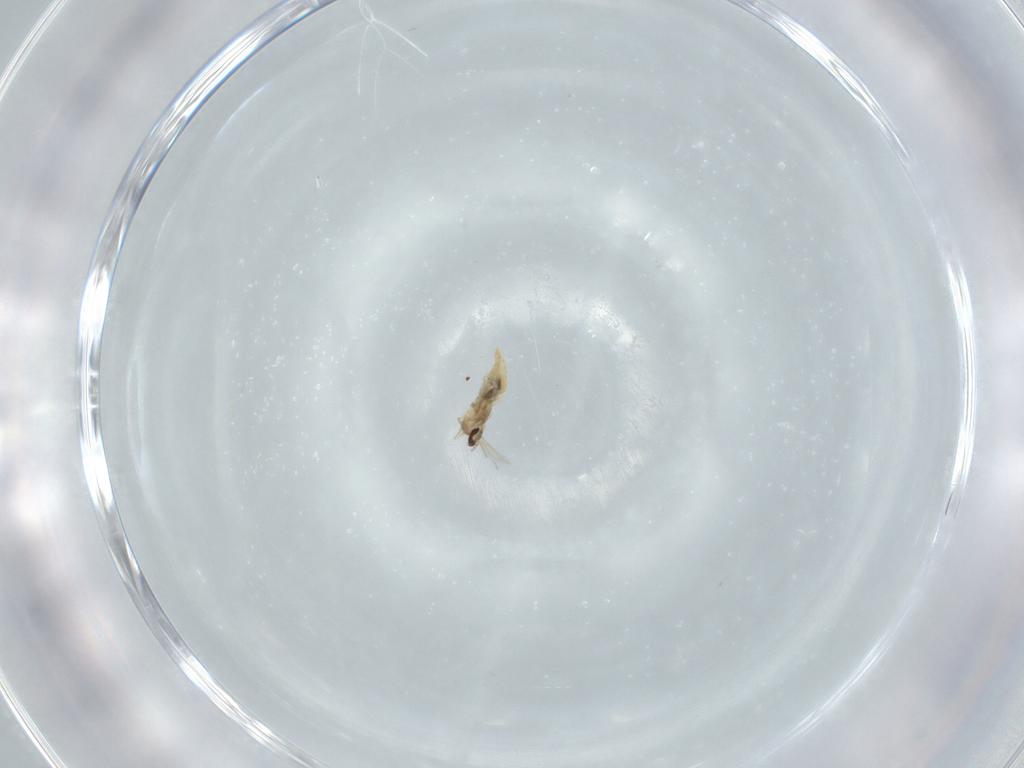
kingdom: Animalia
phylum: Arthropoda
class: Insecta
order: Diptera
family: Cecidomyiidae
